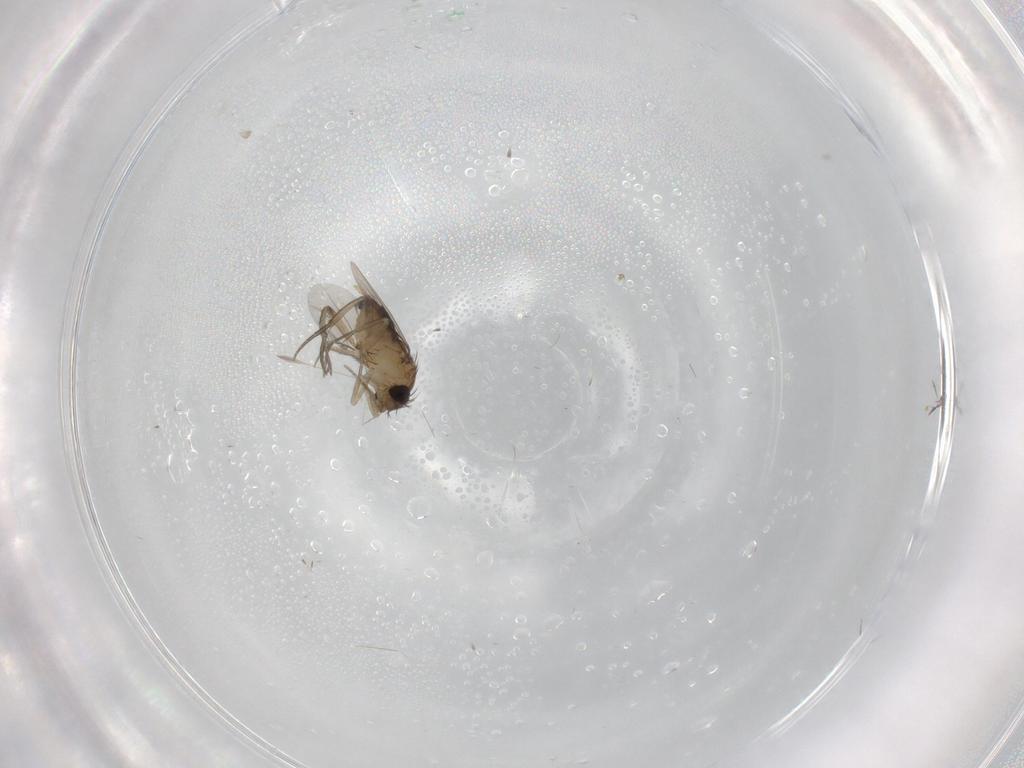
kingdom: Animalia
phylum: Arthropoda
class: Insecta
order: Diptera
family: Phoridae
